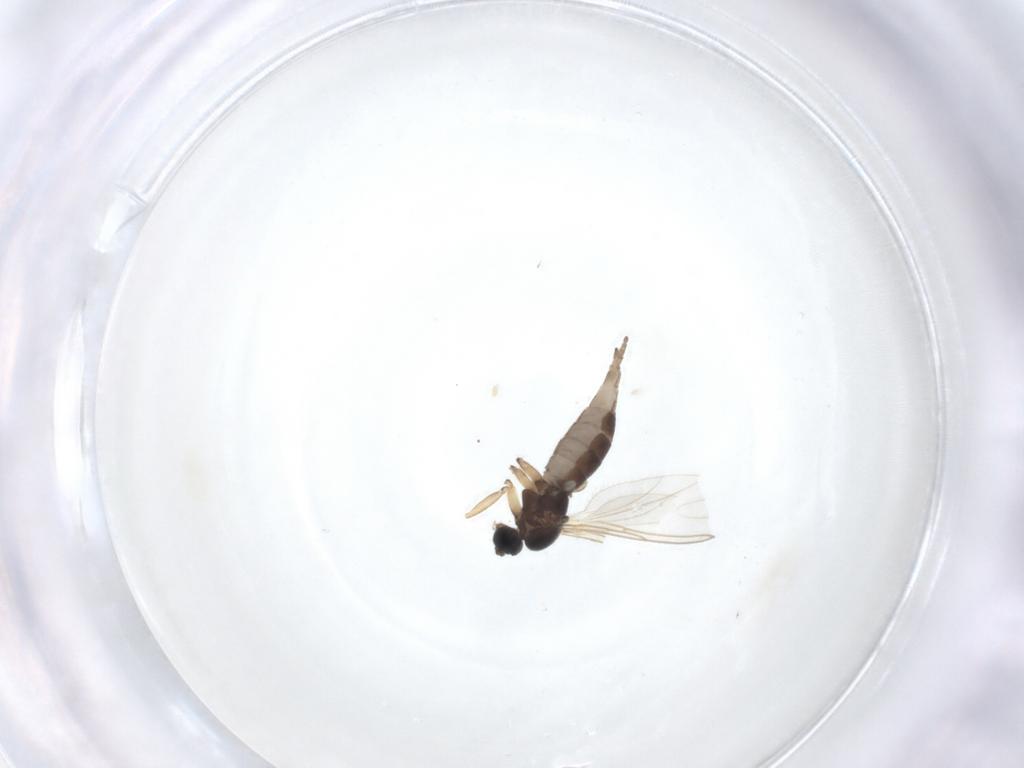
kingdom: Animalia
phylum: Arthropoda
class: Insecta
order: Diptera
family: Sciaridae
